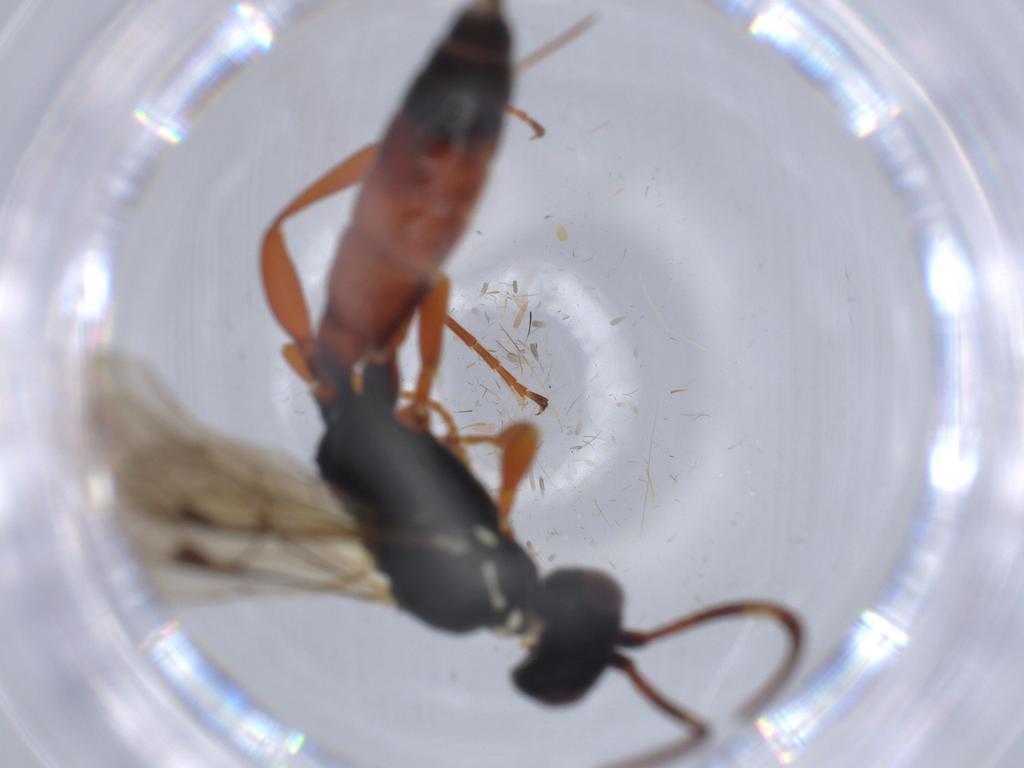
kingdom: Animalia
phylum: Arthropoda
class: Insecta
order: Hymenoptera
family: Ichneumonidae
